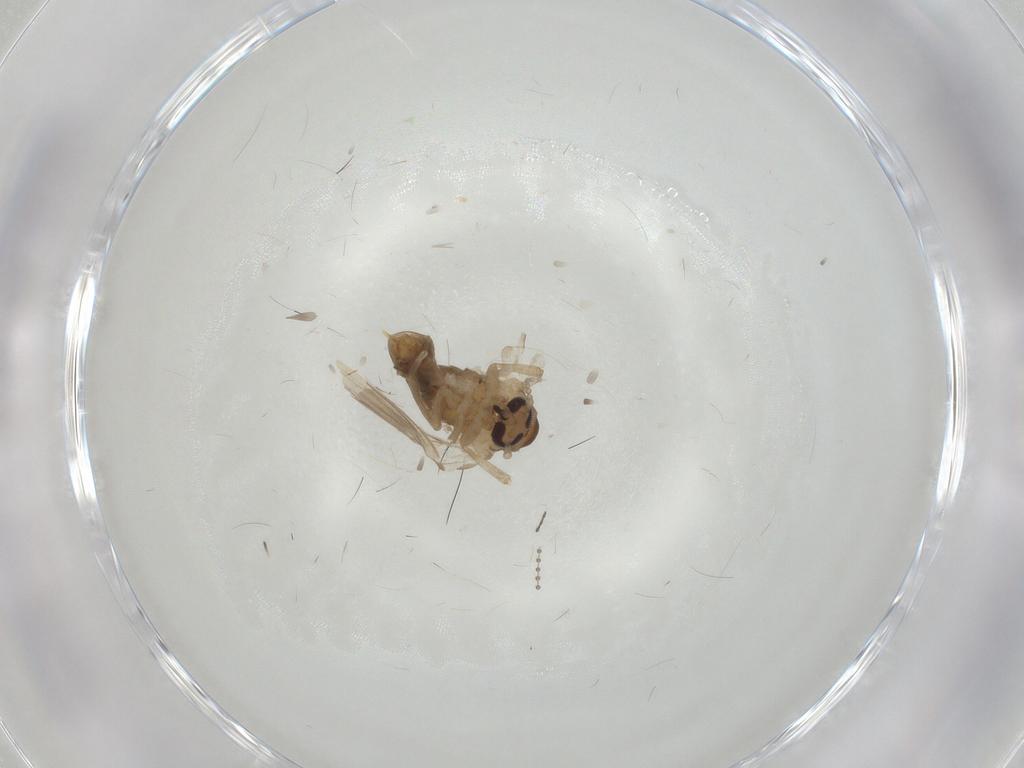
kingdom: Animalia
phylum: Arthropoda
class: Insecta
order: Diptera
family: Psychodidae
